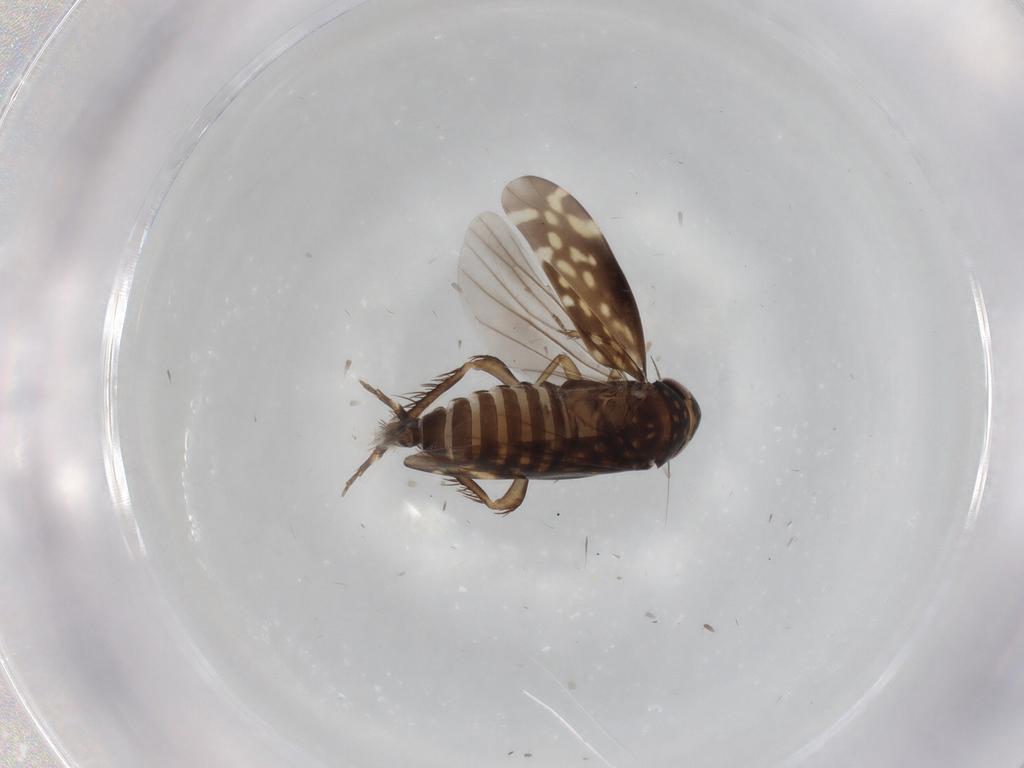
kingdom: Animalia
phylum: Arthropoda
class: Insecta
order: Hemiptera
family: Cicadellidae
